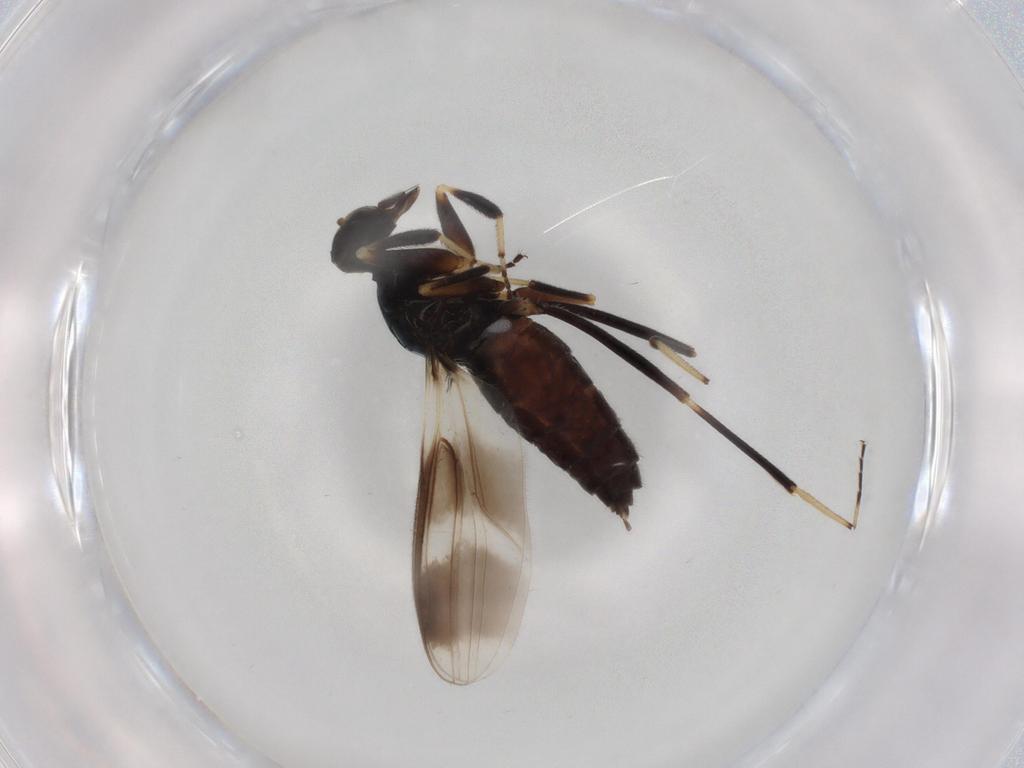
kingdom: Animalia
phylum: Arthropoda
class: Insecta
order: Diptera
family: Hybotidae
